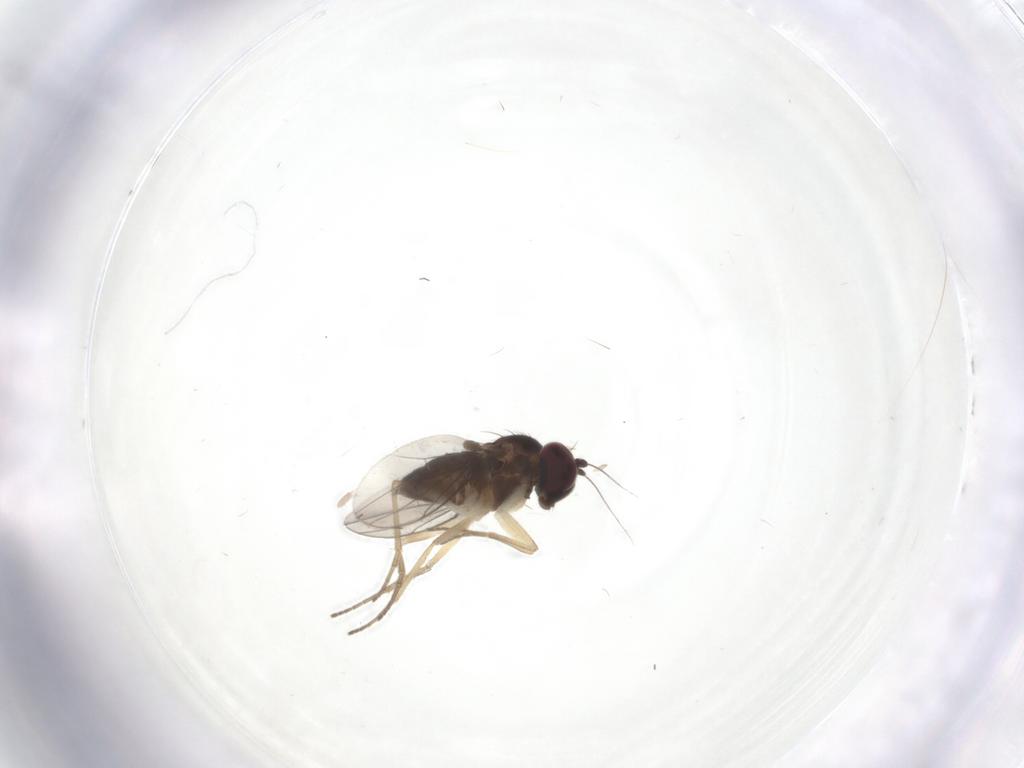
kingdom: Animalia
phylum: Arthropoda
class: Insecta
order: Diptera
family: Dolichopodidae
